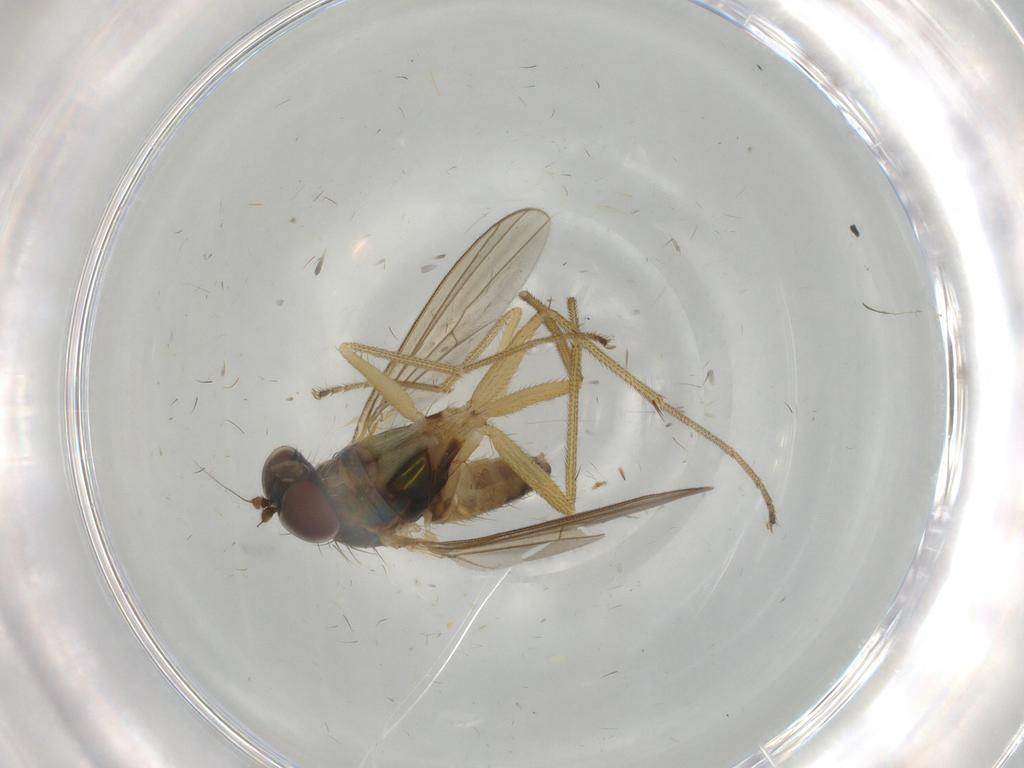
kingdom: Animalia
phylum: Arthropoda
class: Insecta
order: Diptera
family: Dolichopodidae
